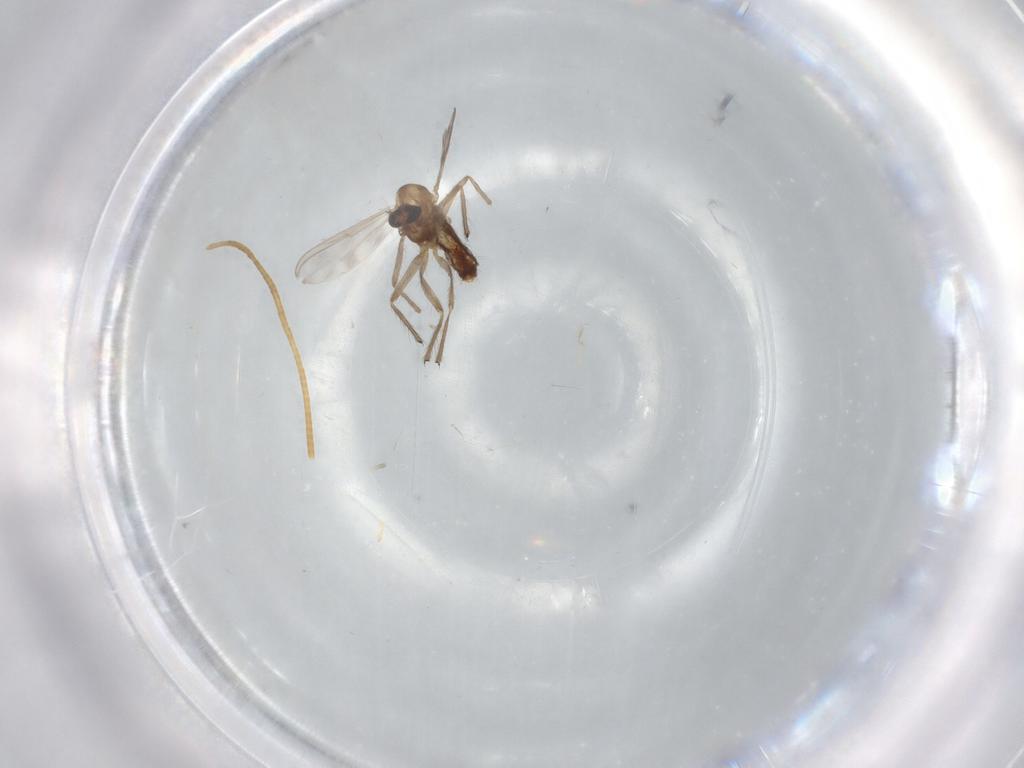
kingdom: Animalia
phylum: Arthropoda
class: Insecta
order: Diptera
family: Chironomidae
